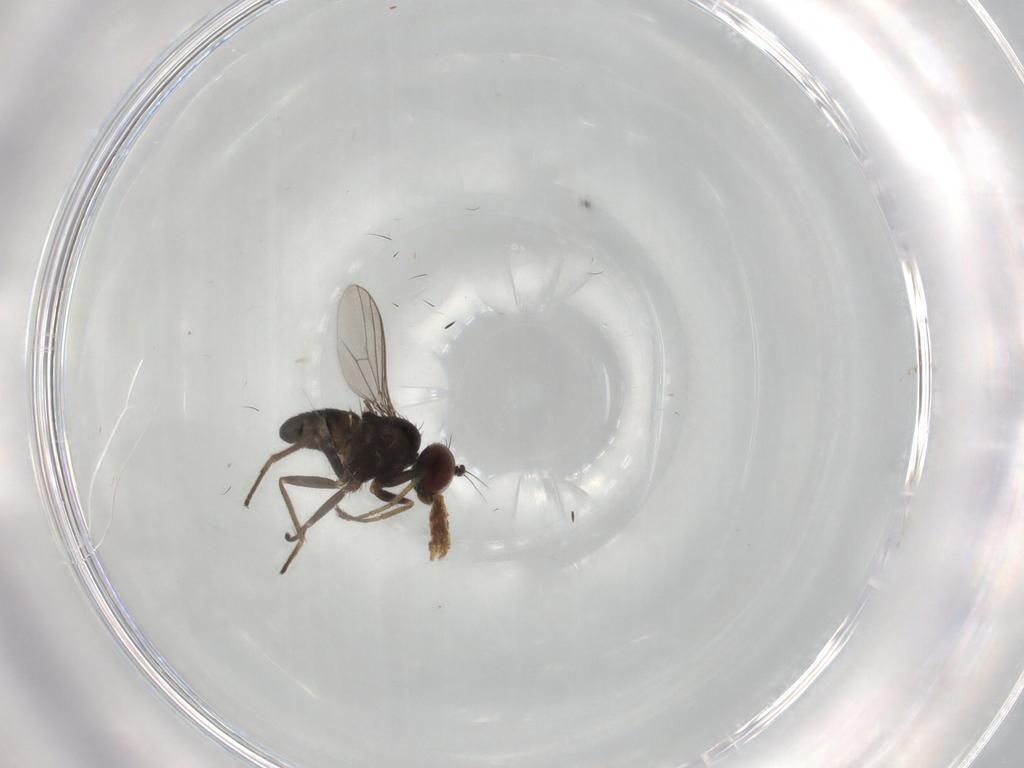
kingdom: Animalia
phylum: Arthropoda
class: Insecta
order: Diptera
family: Dolichopodidae
